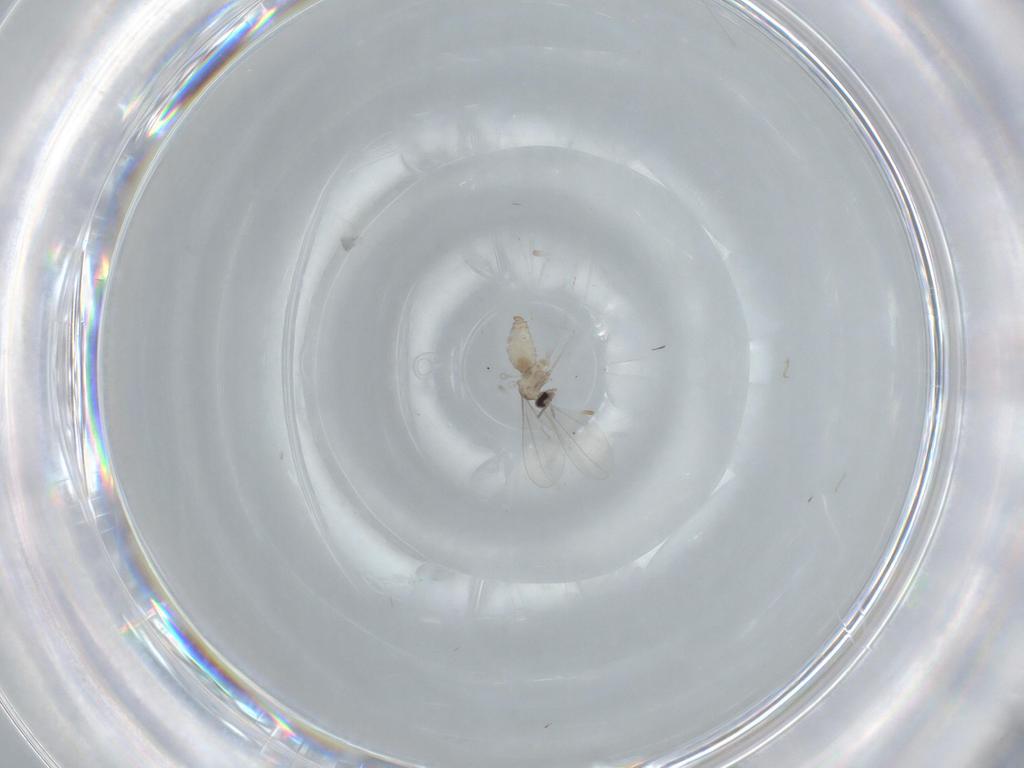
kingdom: Animalia
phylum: Arthropoda
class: Insecta
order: Diptera
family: Cecidomyiidae
